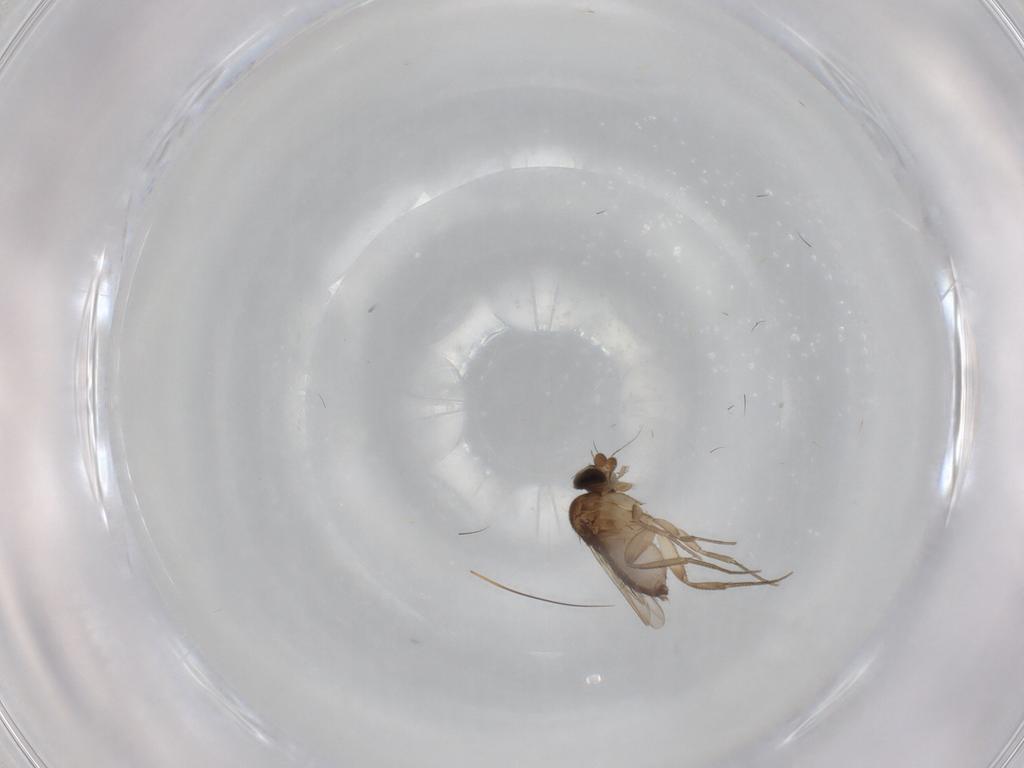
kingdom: Animalia
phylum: Arthropoda
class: Insecta
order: Diptera
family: Phoridae
